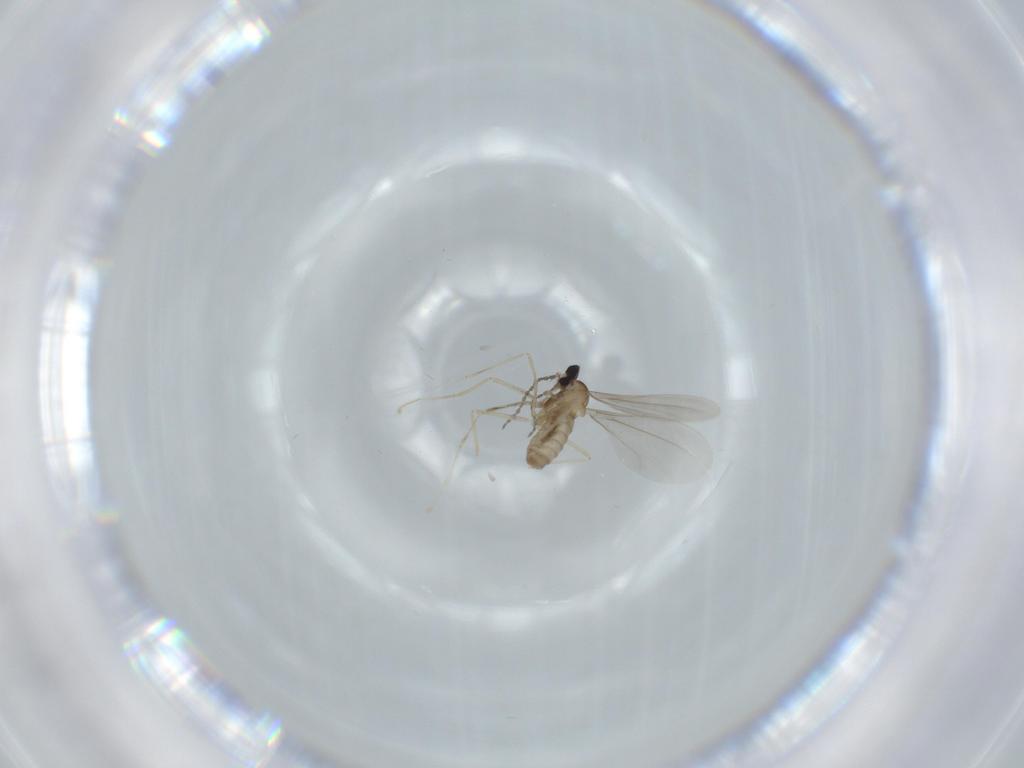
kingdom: Animalia
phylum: Arthropoda
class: Insecta
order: Diptera
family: Cecidomyiidae
